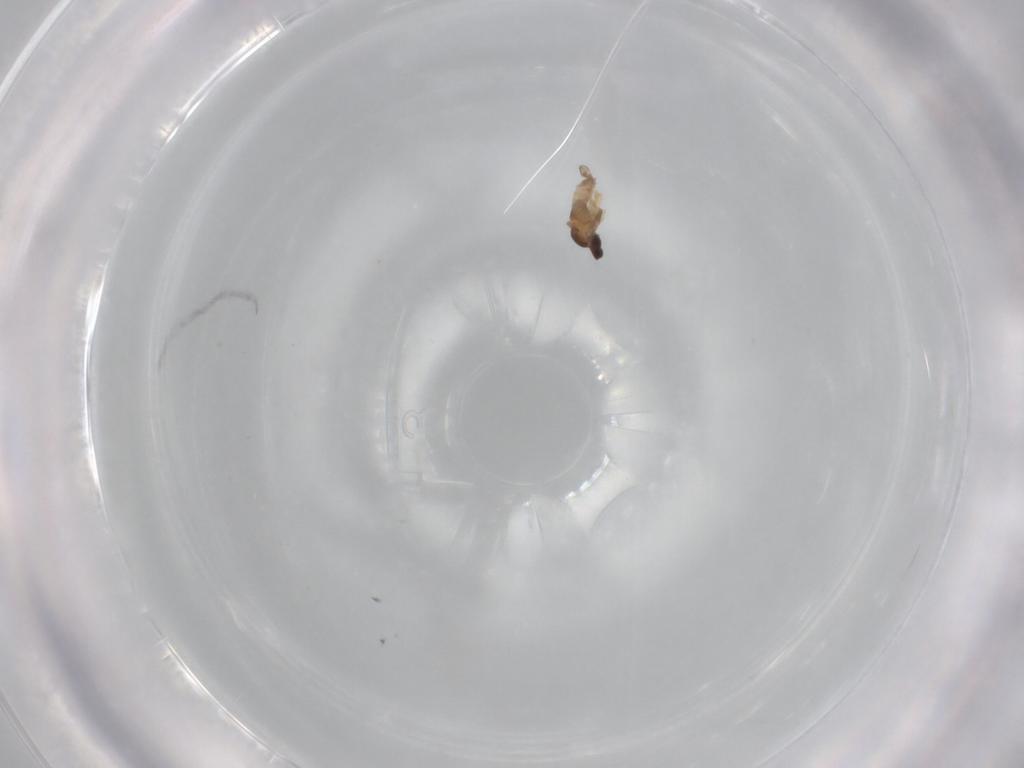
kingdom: Animalia
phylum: Arthropoda
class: Insecta
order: Diptera
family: Cecidomyiidae
